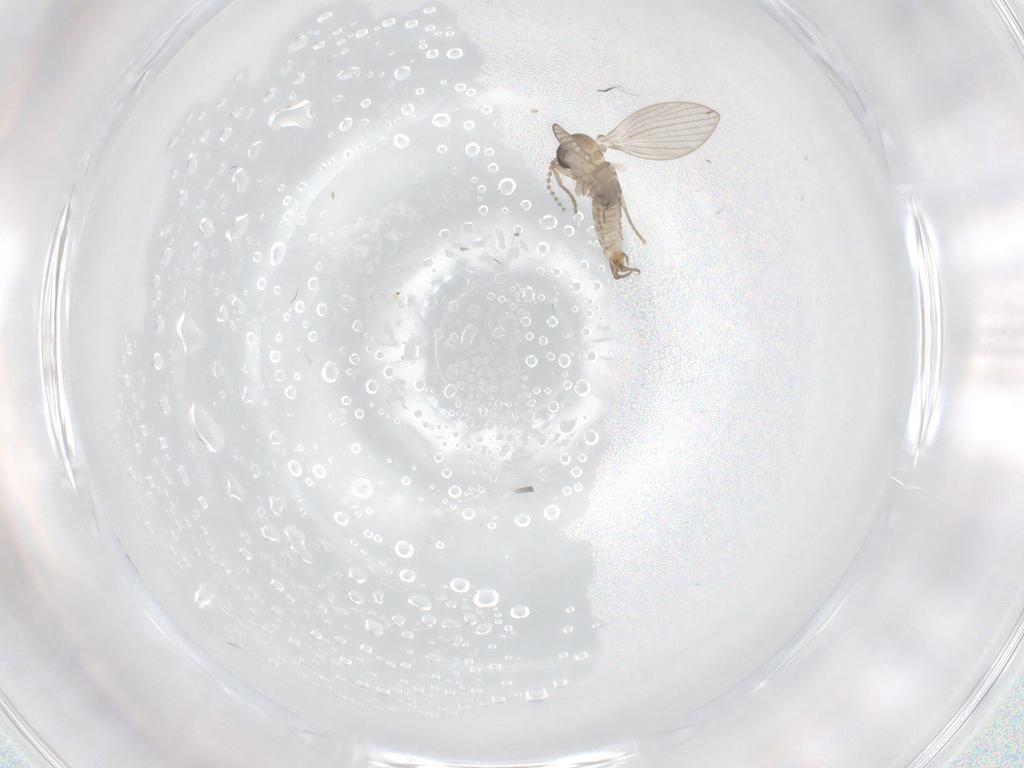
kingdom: Animalia
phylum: Arthropoda
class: Insecta
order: Diptera
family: Psychodidae
